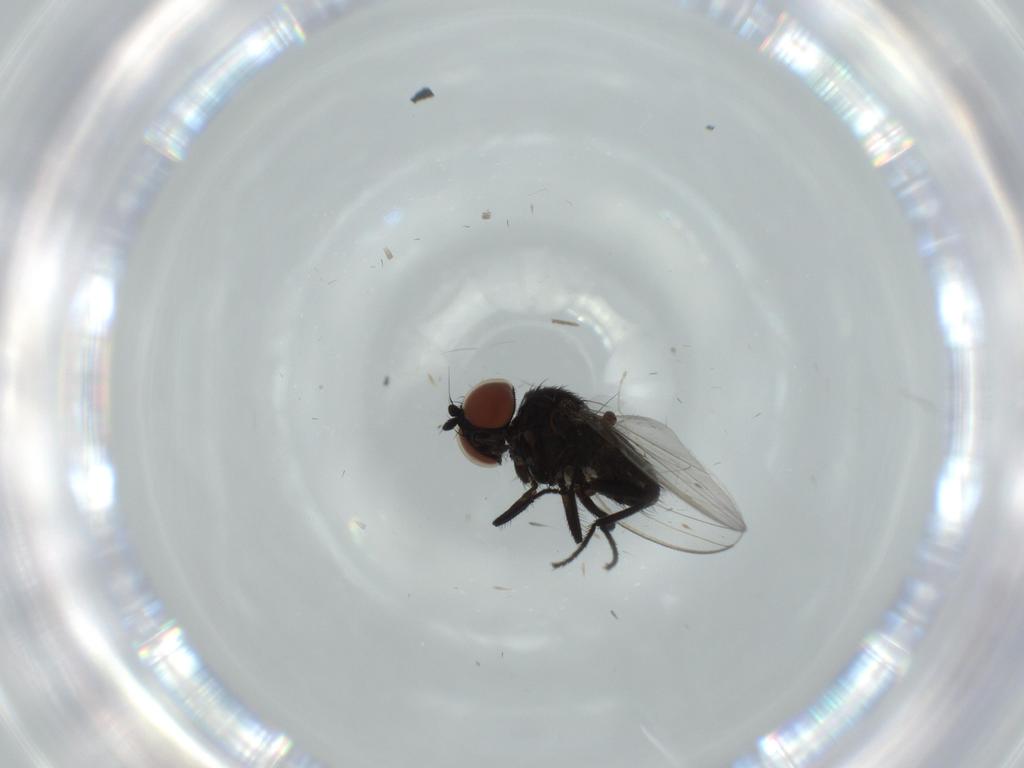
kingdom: Animalia
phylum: Arthropoda
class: Insecta
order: Diptera
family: Milichiidae
